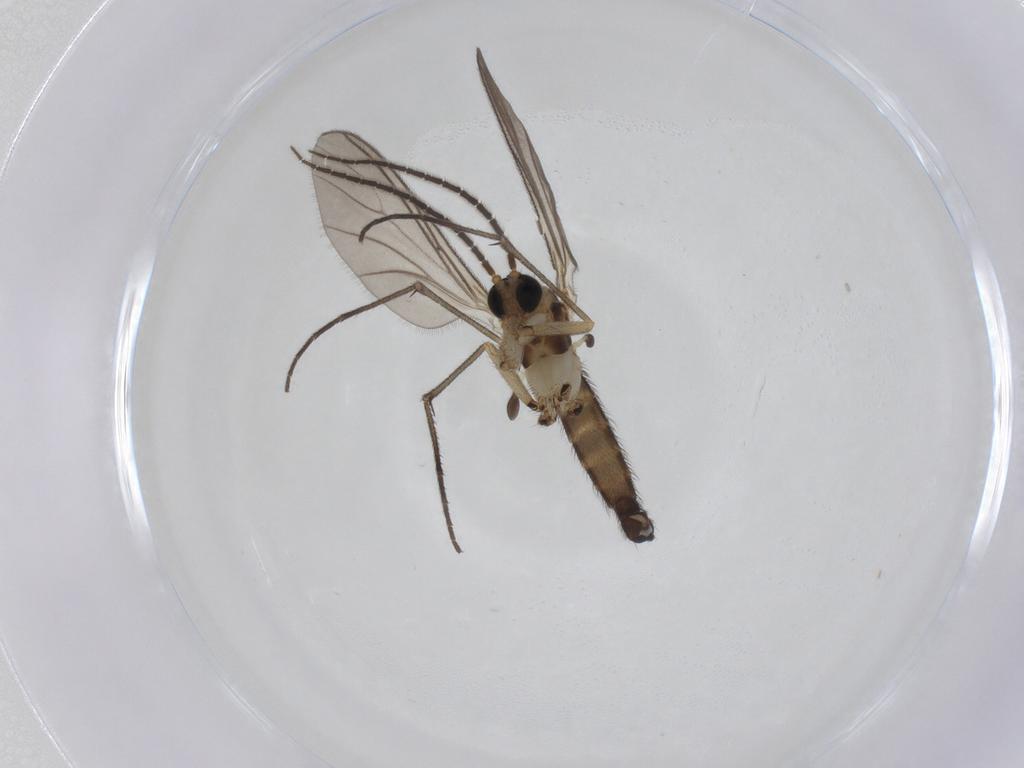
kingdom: Animalia
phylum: Arthropoda
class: Insecta
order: Diptera
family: Sciaridae
